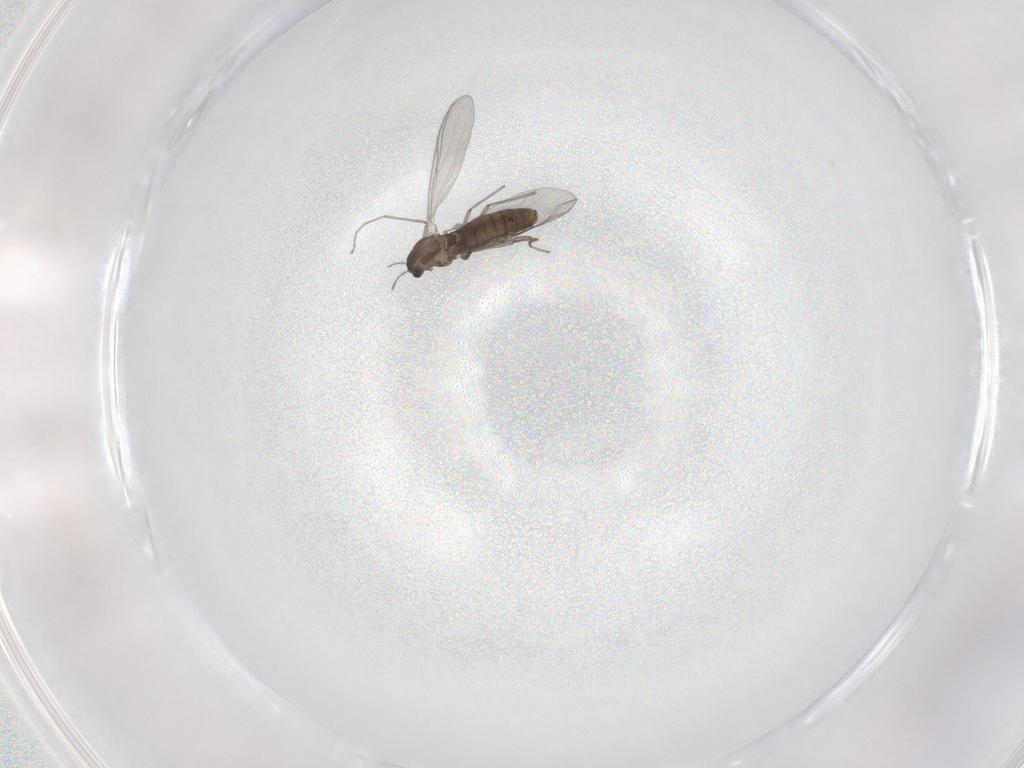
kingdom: Animalia
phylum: Arthropoda
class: Insecta
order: Diptera
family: Chironomidae
